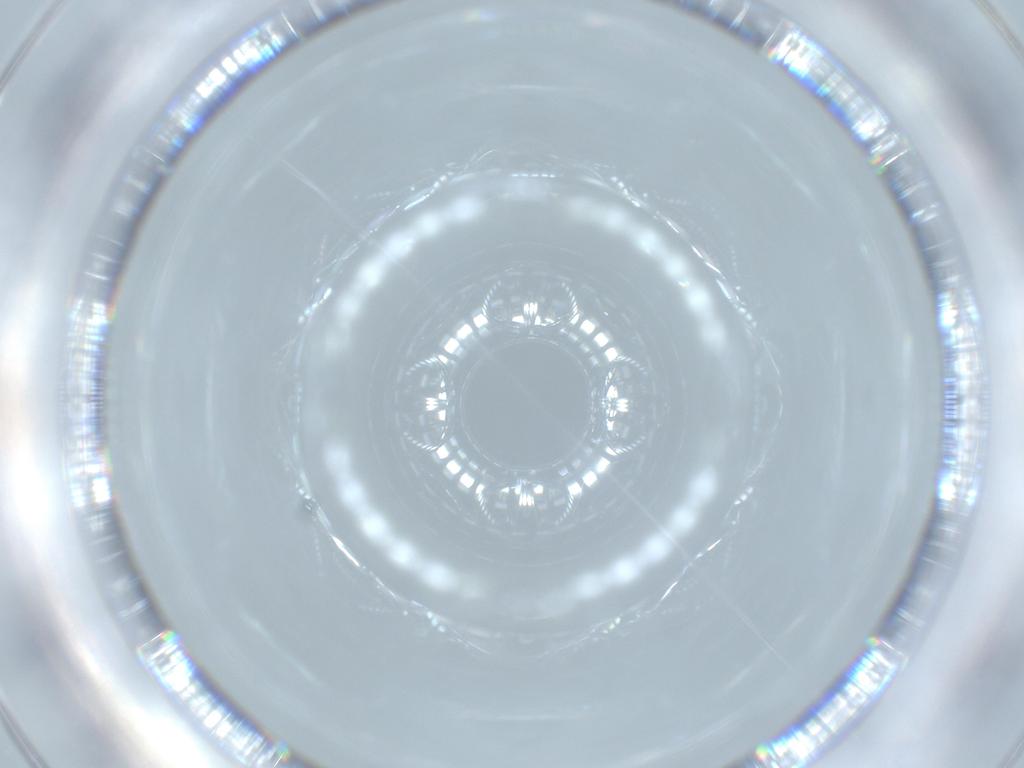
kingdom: Animalia
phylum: Arthropoda
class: Insecta
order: Psocodea
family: Caeciliusidae
